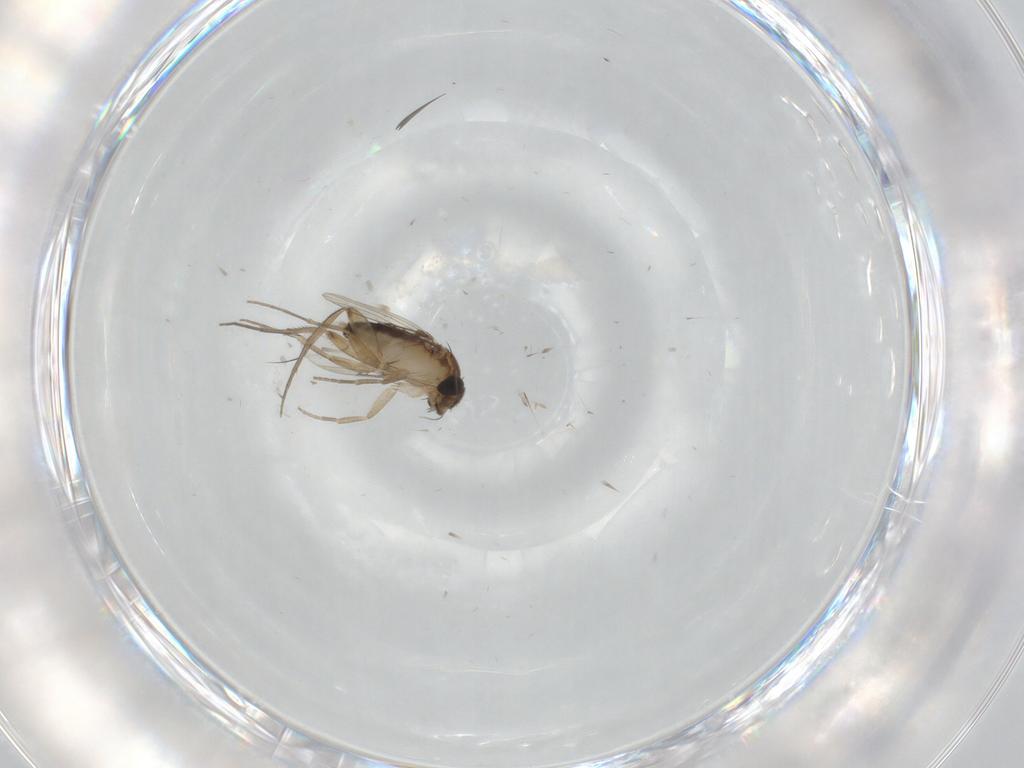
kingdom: Animalia
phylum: Arthropoda
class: Insecta
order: Diptera
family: Phoridae
